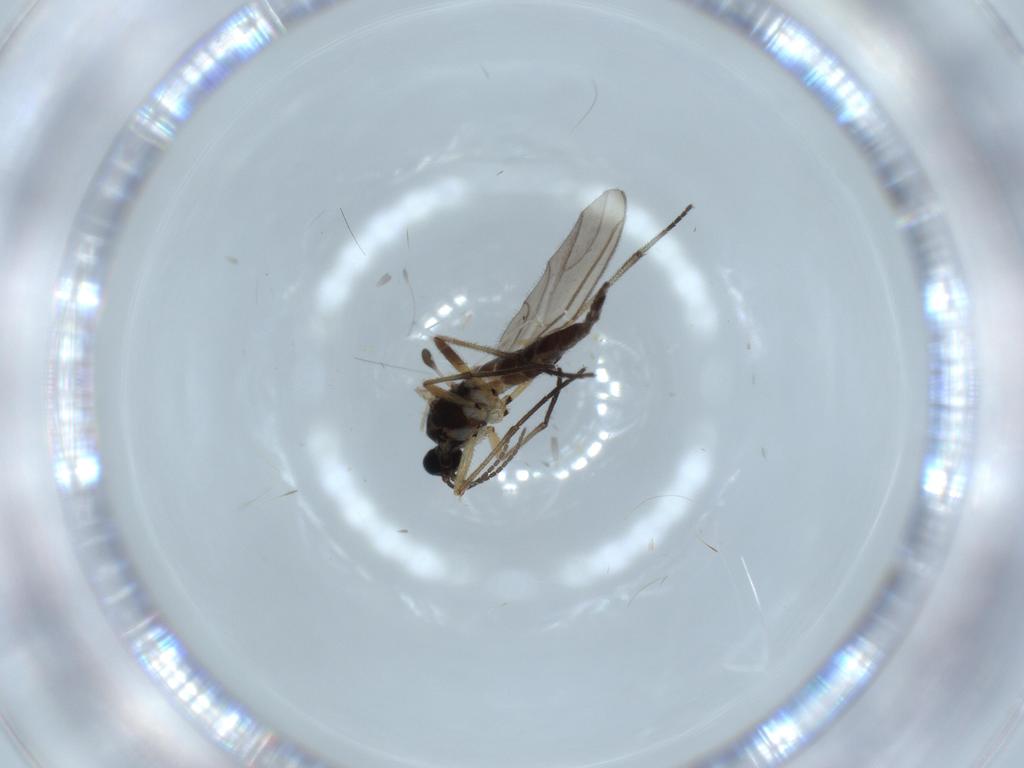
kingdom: Animalia
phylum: Arthropoda
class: Insecta
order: Diptera
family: Sciaridae
